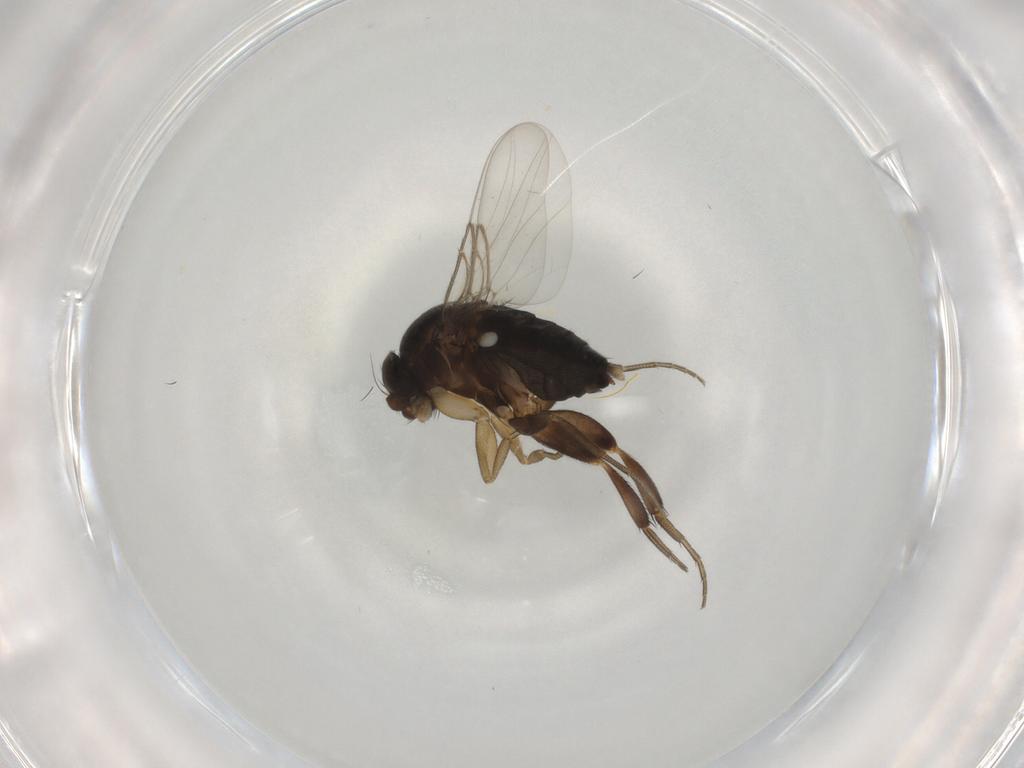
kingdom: Animalia
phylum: Arthropoda
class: Insecta
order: Diptera
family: Phoridae
